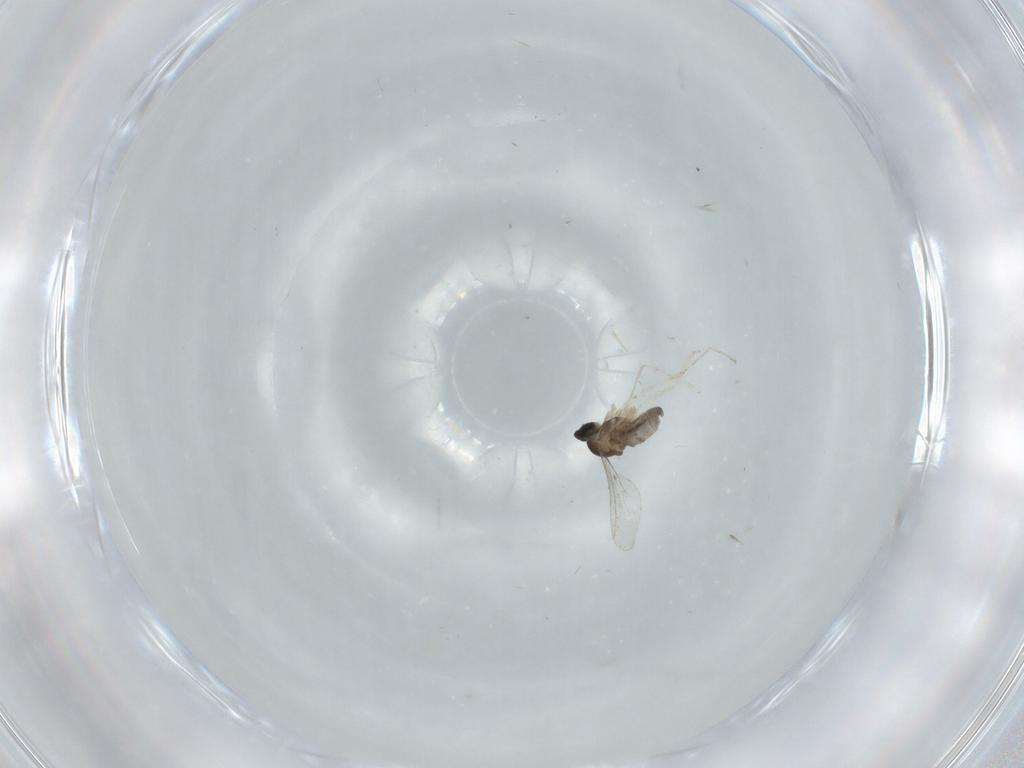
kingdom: Animalia
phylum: Arthropoda
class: Insecta
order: Diptera
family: Cecidomyiidae
